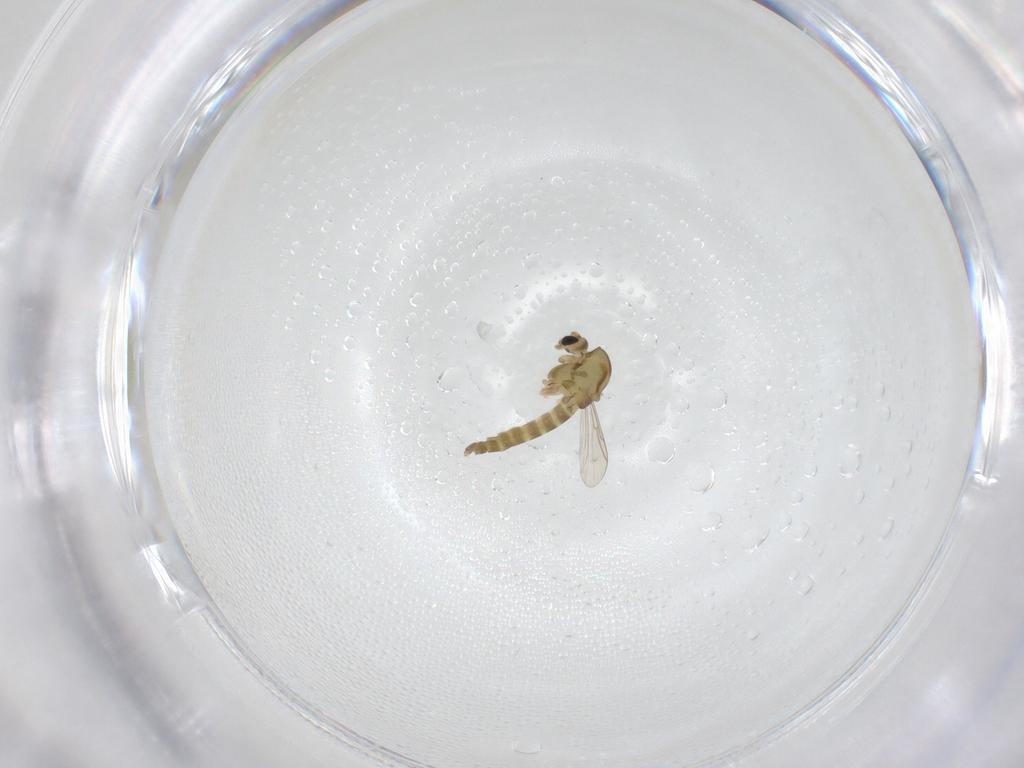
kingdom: Animalia
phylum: Arthropoda
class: Insecta
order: Diptera
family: Chironomidae
